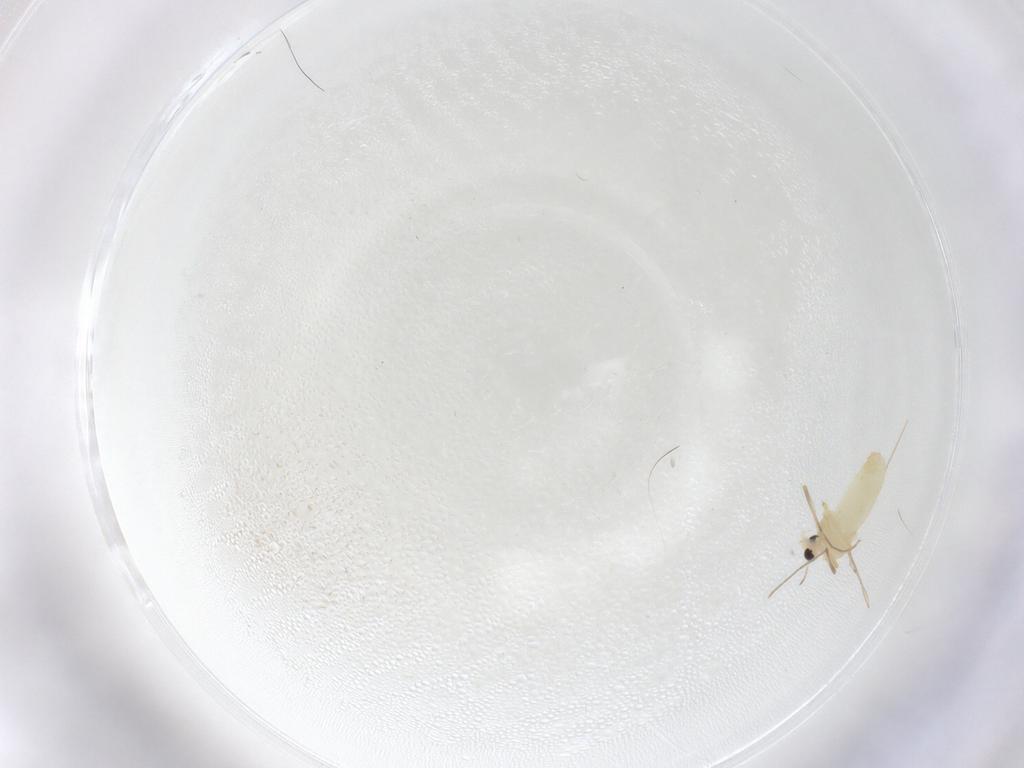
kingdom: Animalia
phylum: Arthropoda
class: Insecta
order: Diptera
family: Chironomidae
